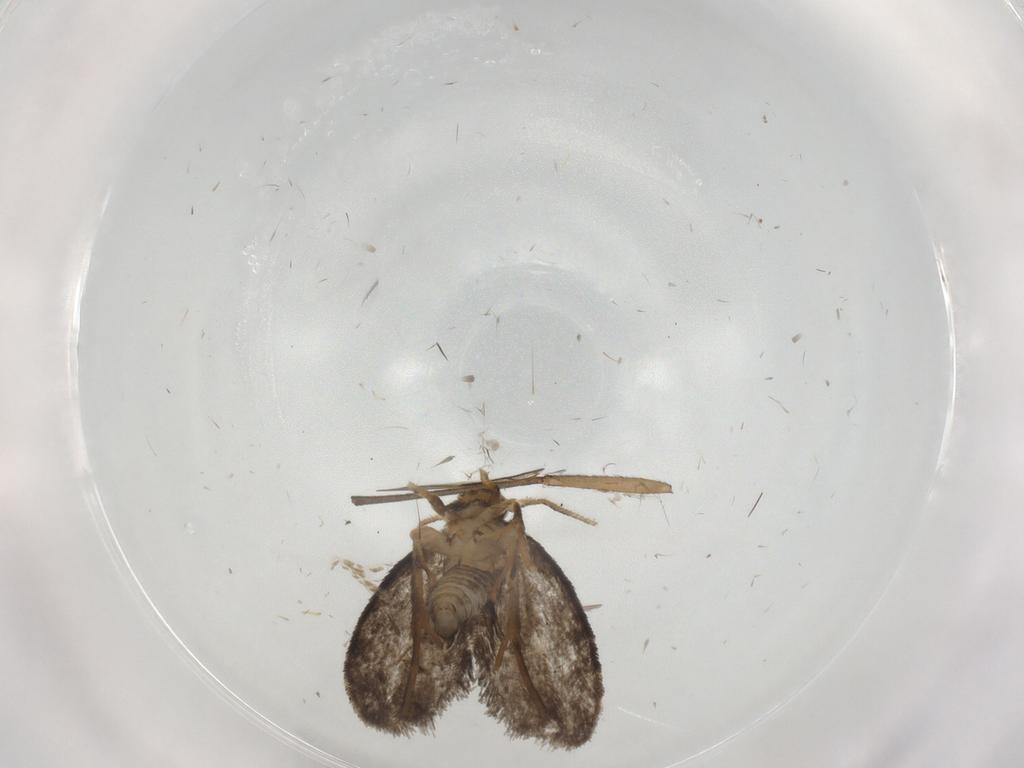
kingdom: Animalia
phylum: Arthropoda
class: Insecta
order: Lepidoptera
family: Psychidae
